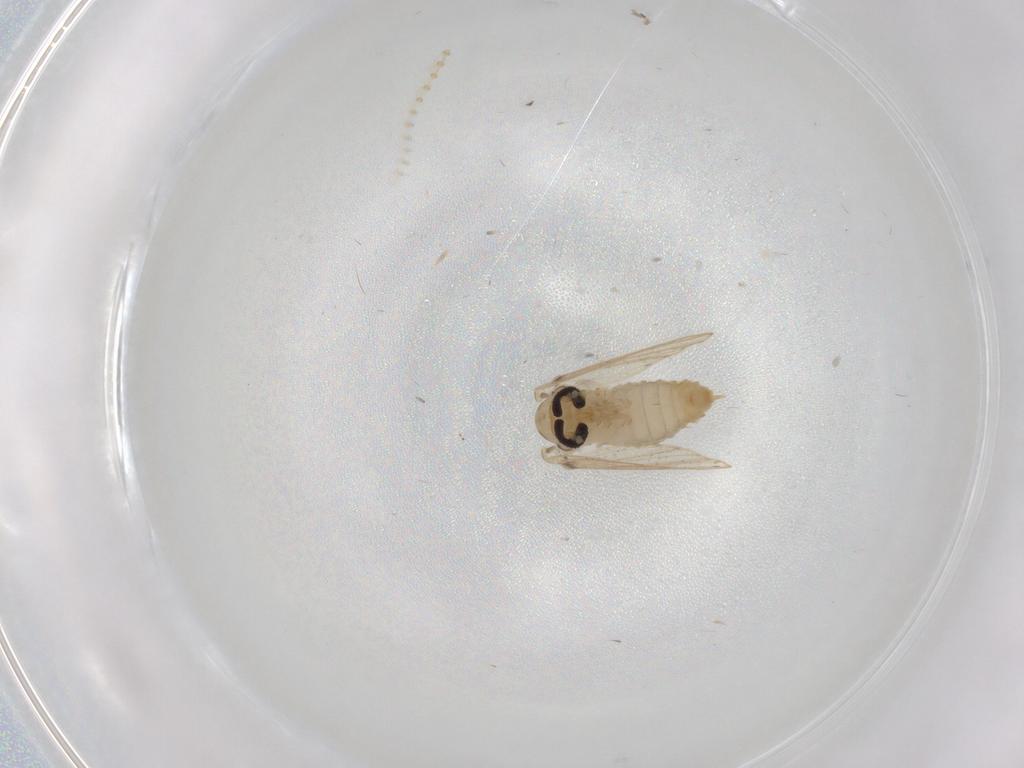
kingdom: Animalia
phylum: Arthropoda
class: Insecta
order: Diptera
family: Psychodidae
